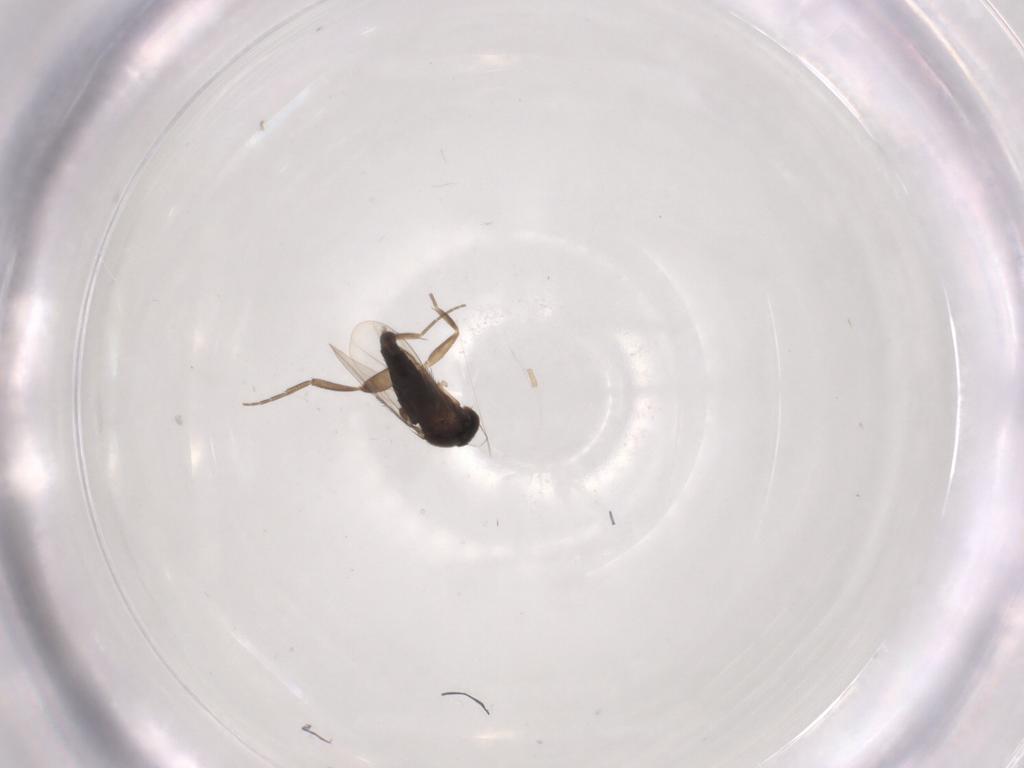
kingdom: Animalia
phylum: Arthropoda
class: Insecta
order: Diptera
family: Phoridae
